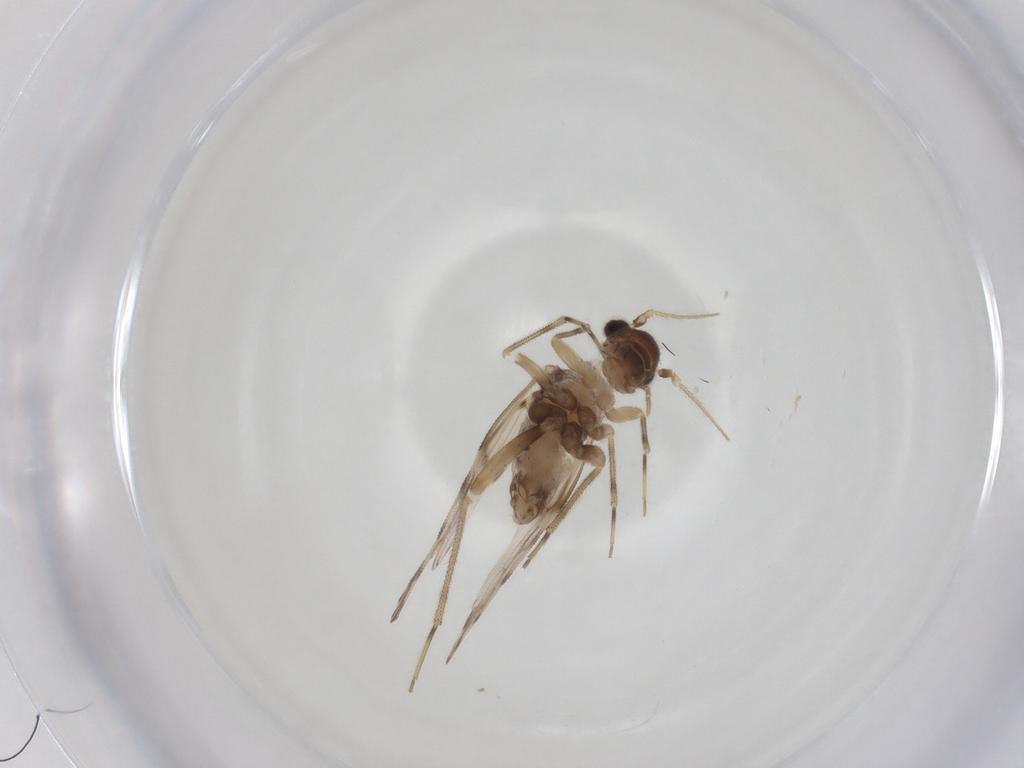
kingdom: Animalia
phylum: Arthropoda
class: Insecta
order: Psocodea
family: Epipsocidae
